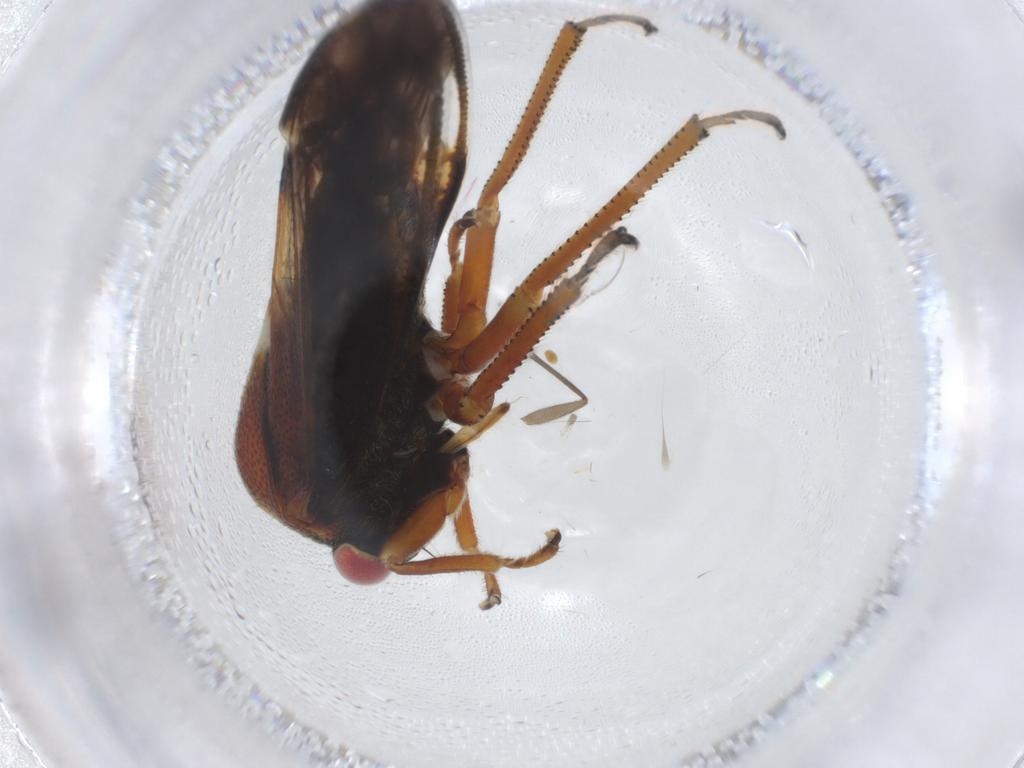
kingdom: Animalia
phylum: Arthropoda
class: Insecta
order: Hemiptera
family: Membracidae
